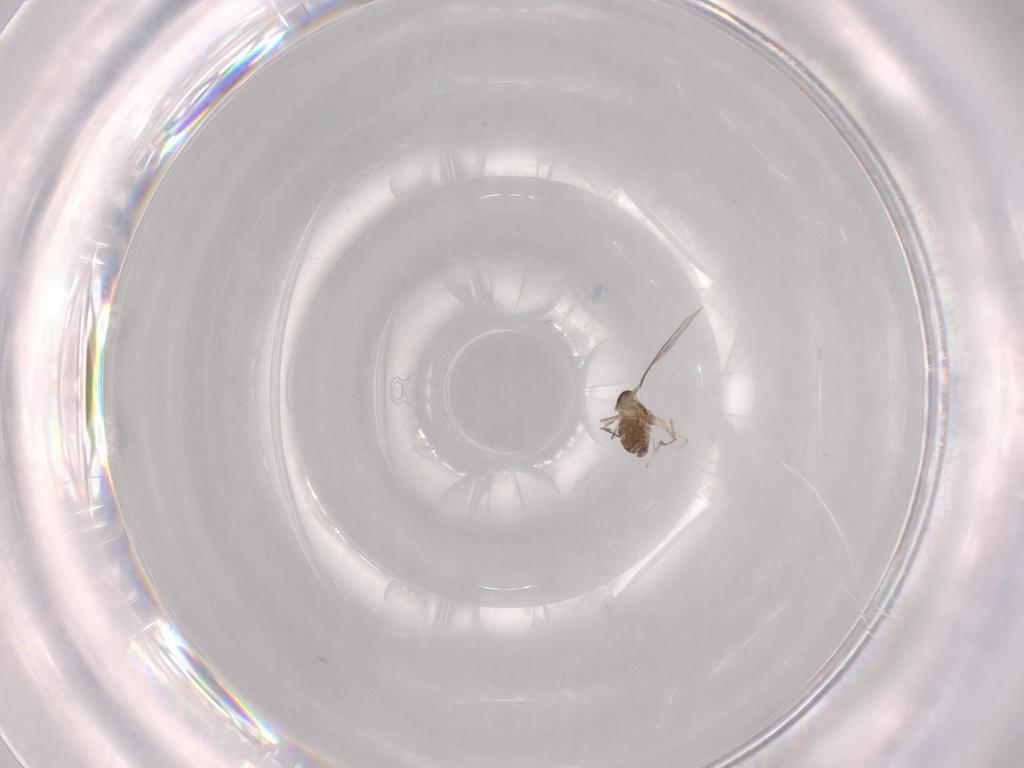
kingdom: Animalia
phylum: Arthropoda
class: Insecta
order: Diptera
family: Cecidomyiidae
